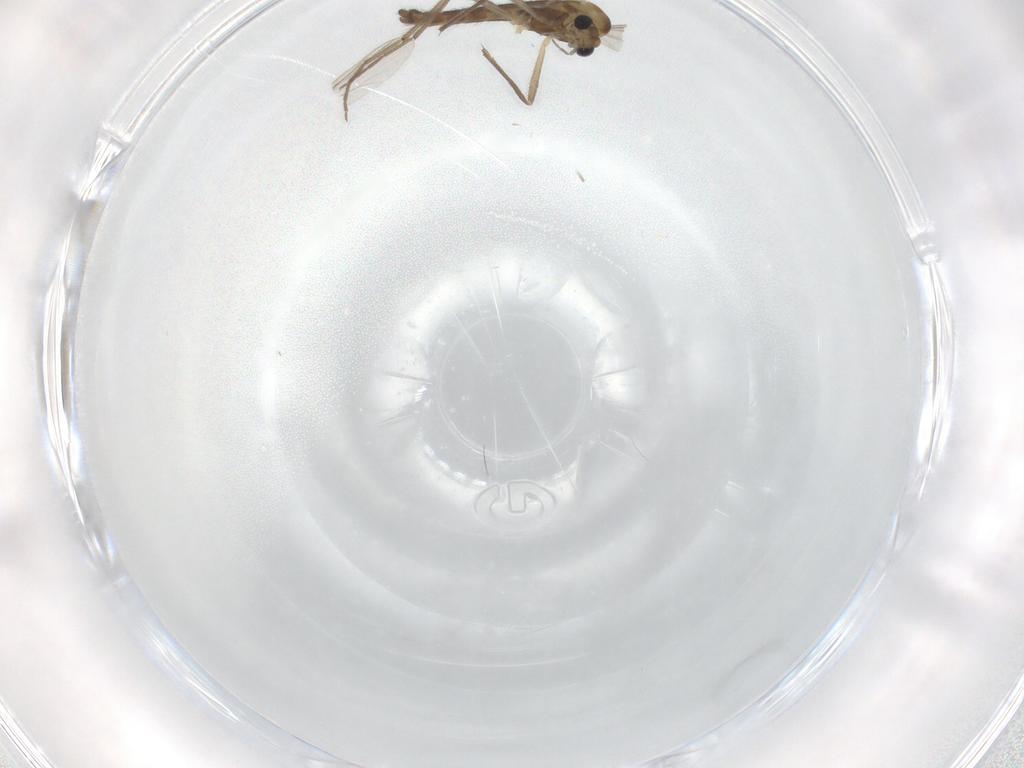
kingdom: Animalia
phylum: Arthropoda
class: Insecta
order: Diptera
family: Chironomidae
